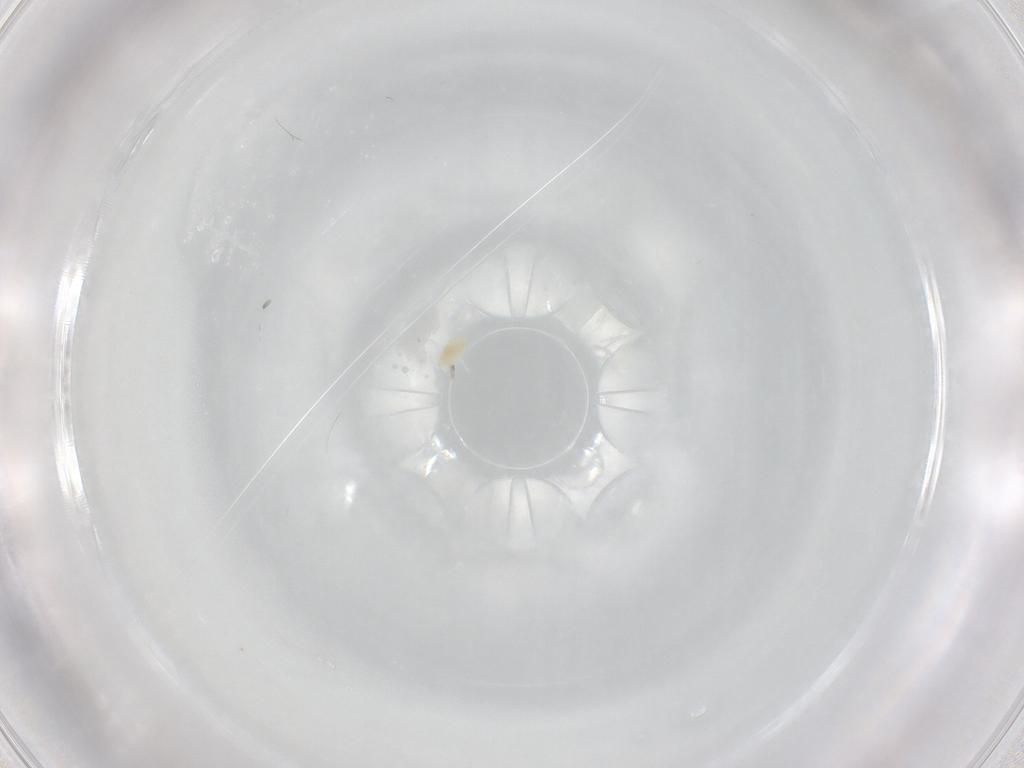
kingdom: Animalia
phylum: Arthropoda
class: Arachnida
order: Trombidiformes
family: Eupodidae
